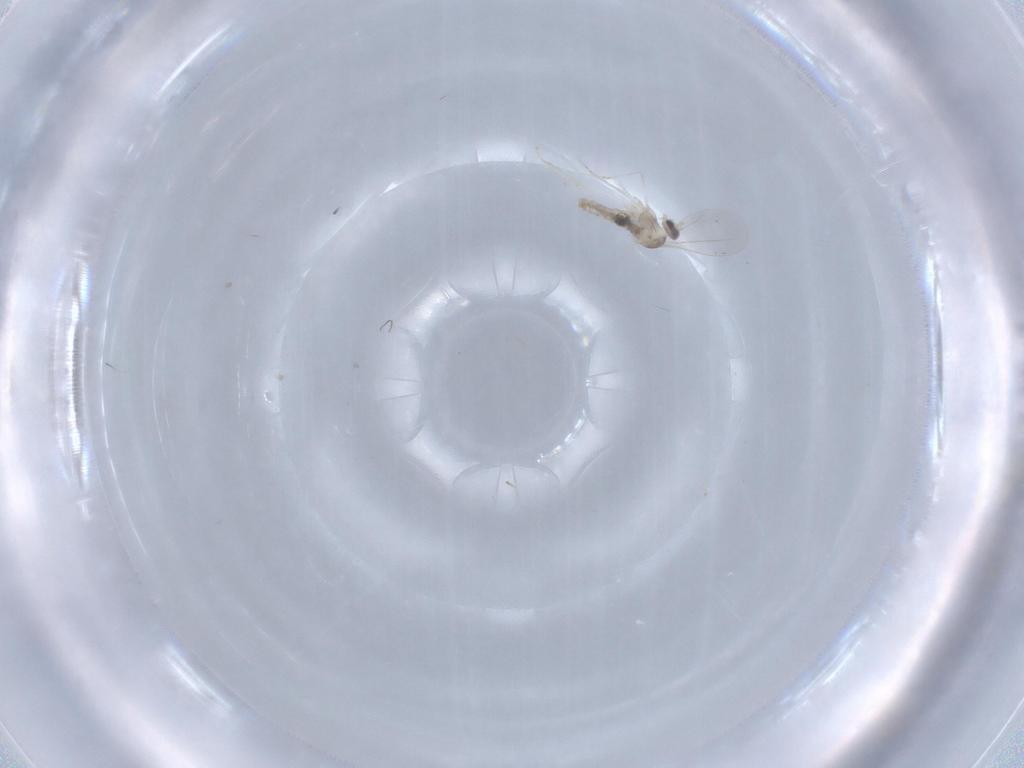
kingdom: Animalia
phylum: Arthropoda
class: Insecta
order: Diptera
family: Cecidomyiidae
